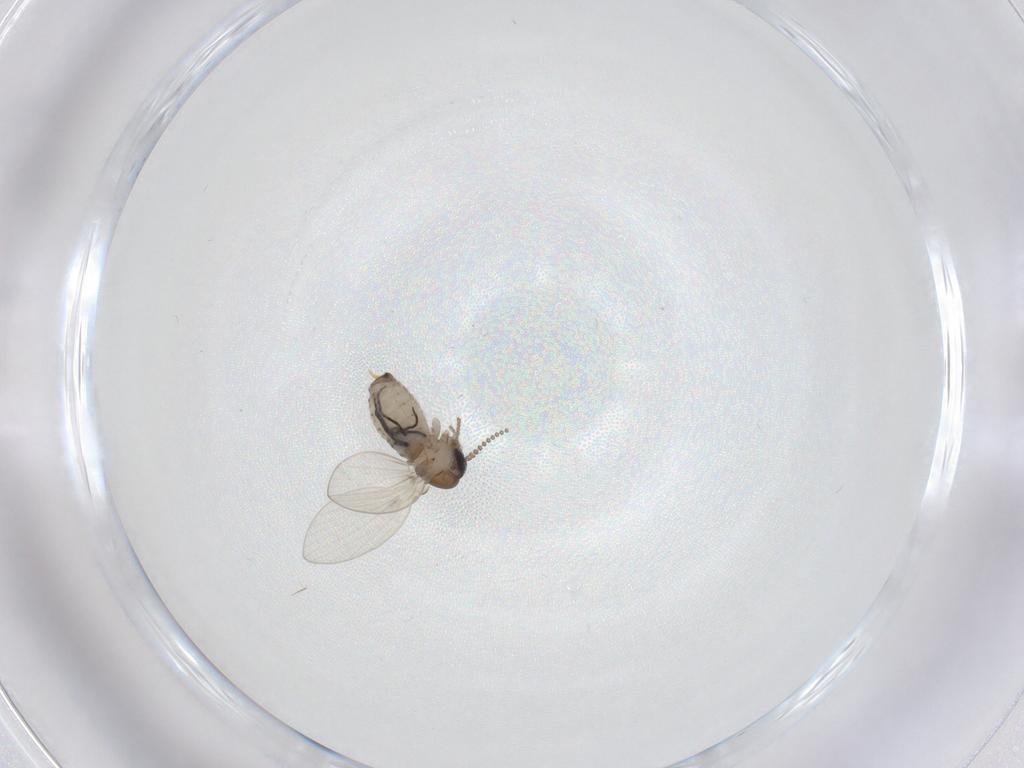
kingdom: Animalia
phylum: Arthropoda
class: Insecta
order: Diptera
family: Psychodidae
